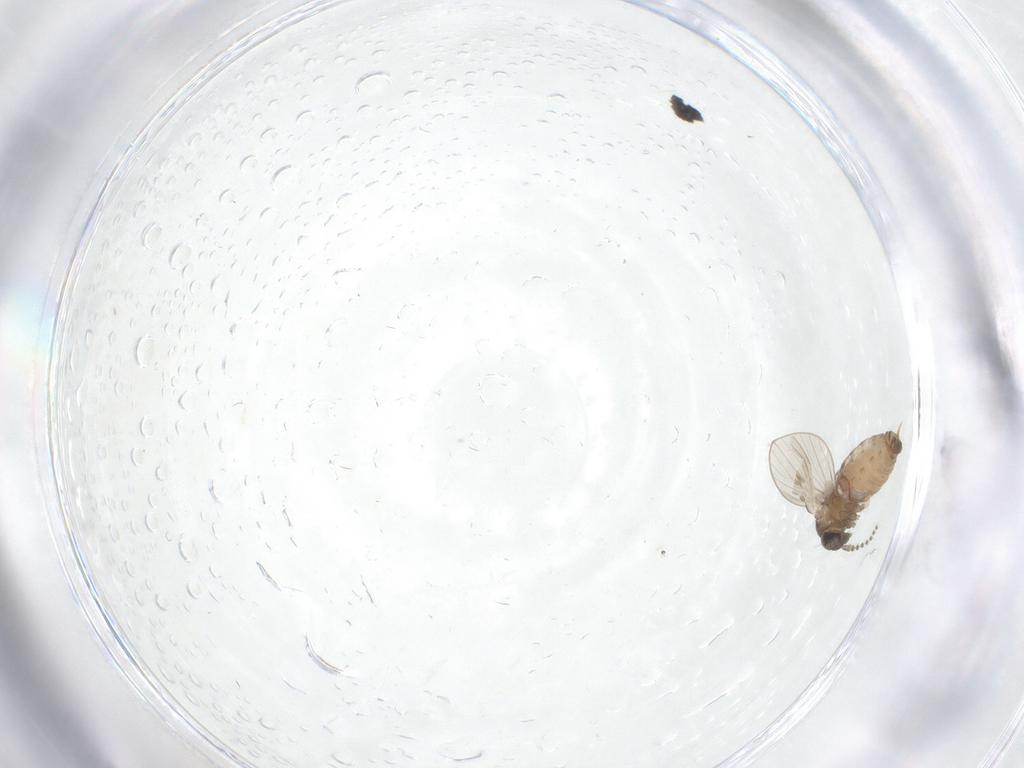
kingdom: Animalia
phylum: Arthropoda
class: Insecta
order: Diptera
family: Psychodidae
